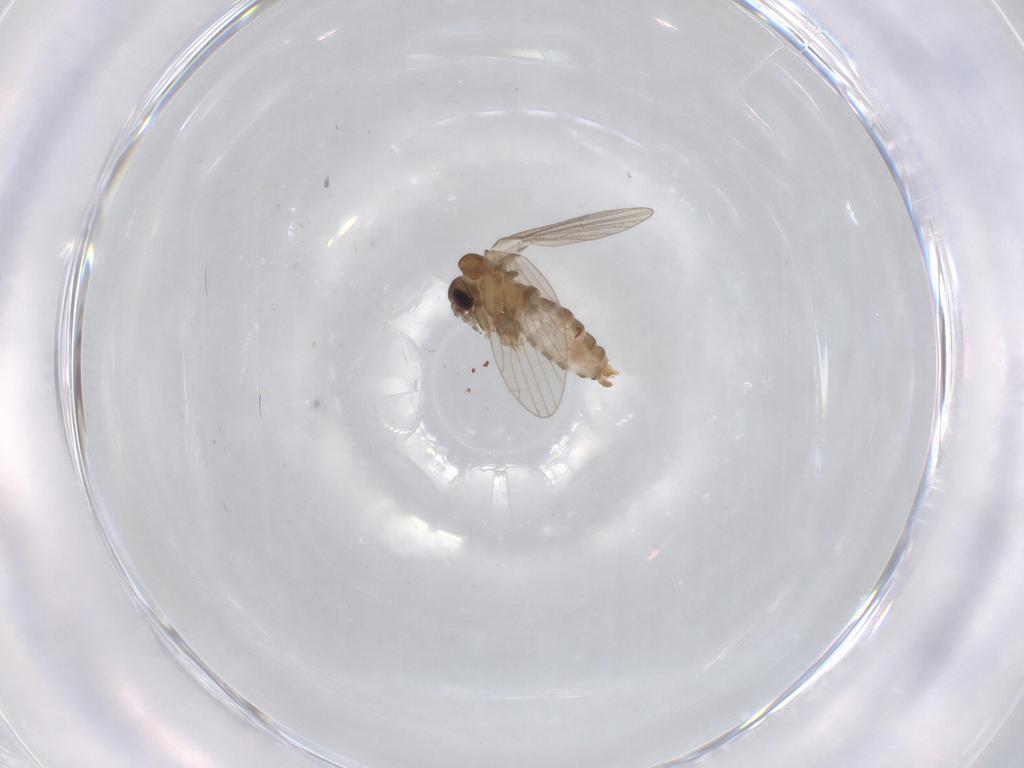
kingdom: Animalia
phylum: Arthropoda
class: Insecta
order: Diptera
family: Psychodidae
